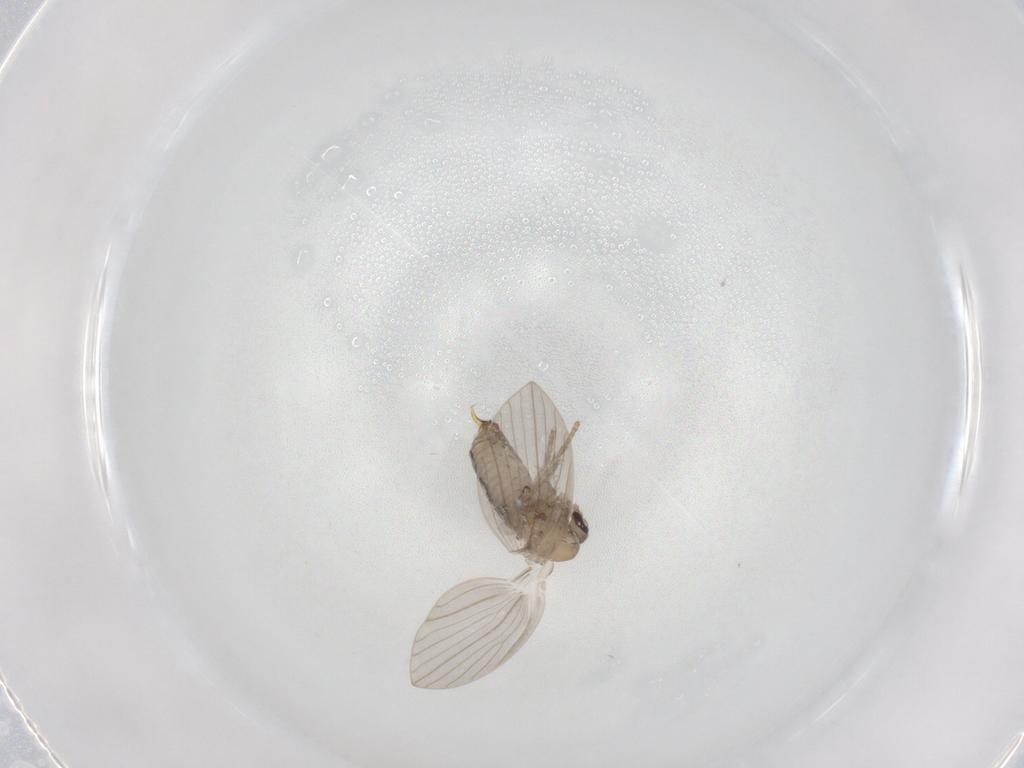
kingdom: Animalia
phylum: Arthropoda
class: Insecta
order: Diptera
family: Psychodidae
